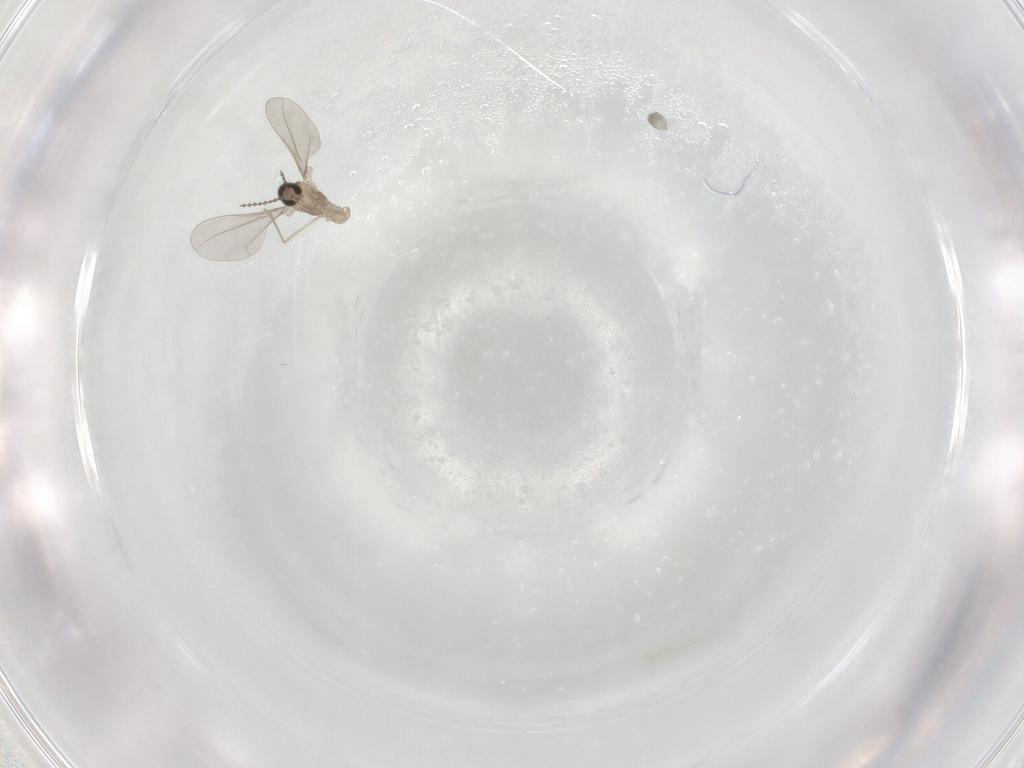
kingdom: Animalia
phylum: Arthropoda
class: Insecta
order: Diptera
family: Cecidomyiidae
